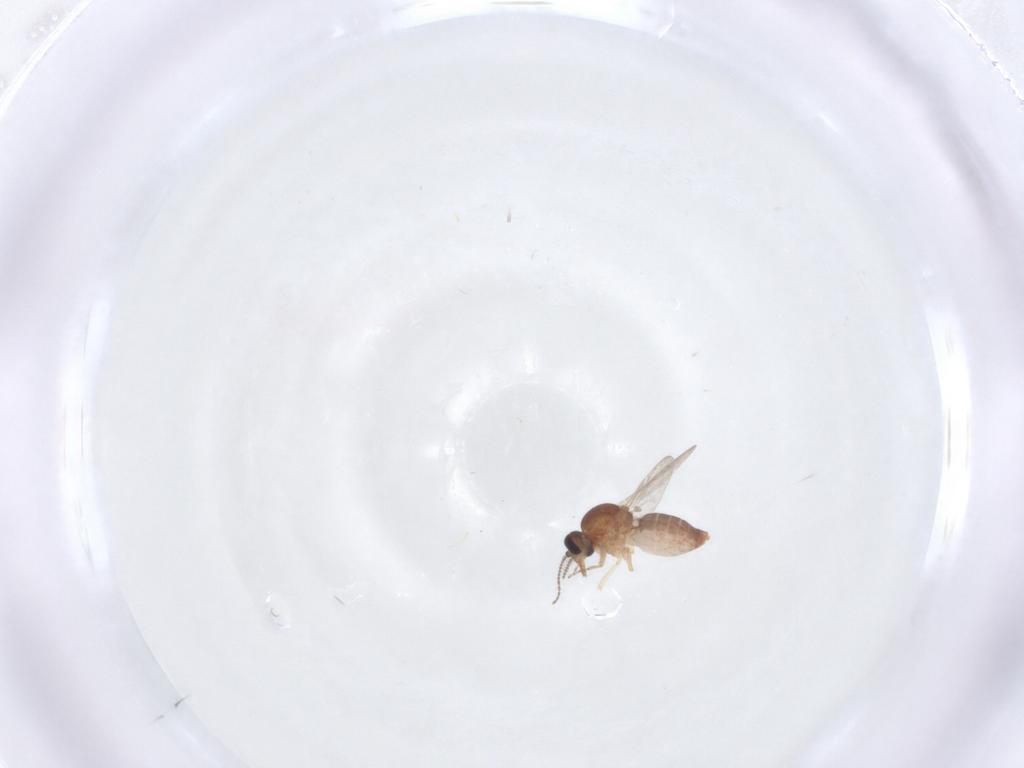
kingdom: Animalia
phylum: Arthropoda
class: Insecta
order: Diptera
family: Ceratopogonidae
